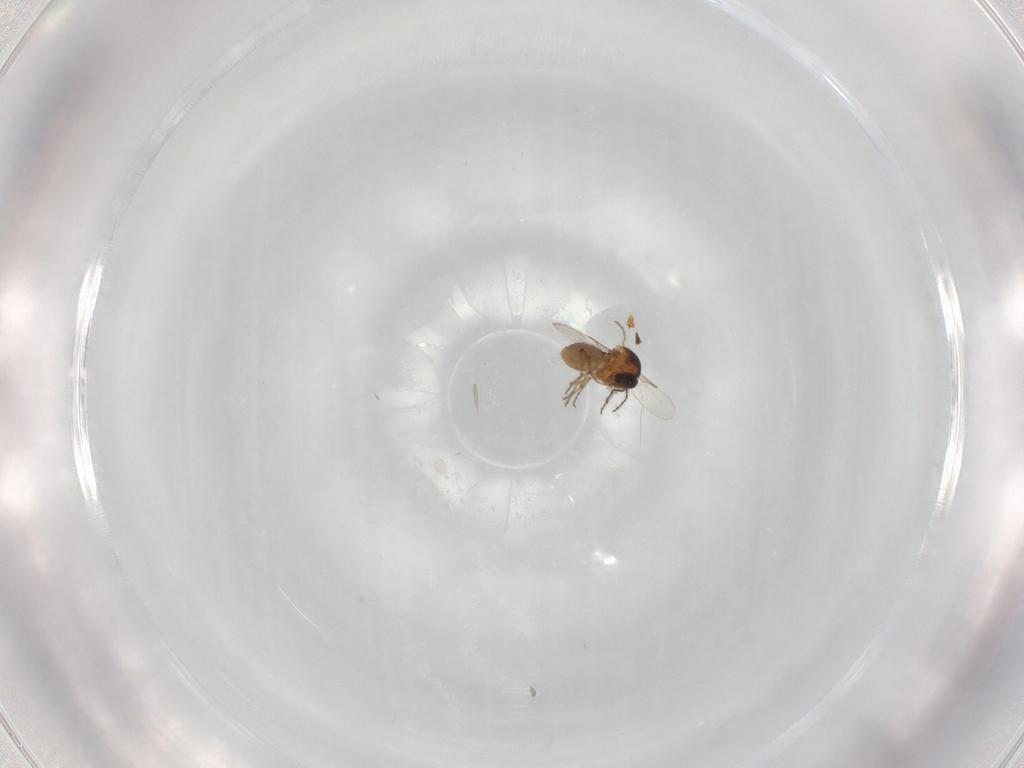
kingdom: Animalia
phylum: Arthropoda
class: Insecta
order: Diptera
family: Ceratopogonidae
